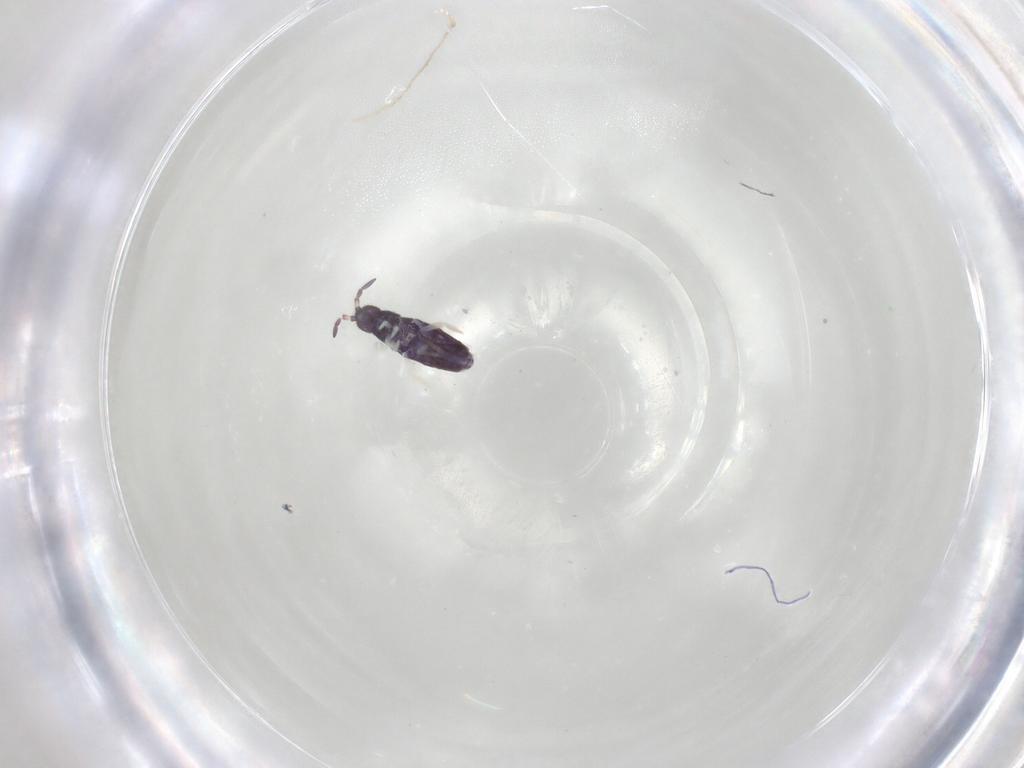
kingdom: Animalia
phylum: Arthropoda
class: Collembola
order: Entomobryomorpha
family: Entomobryidae
